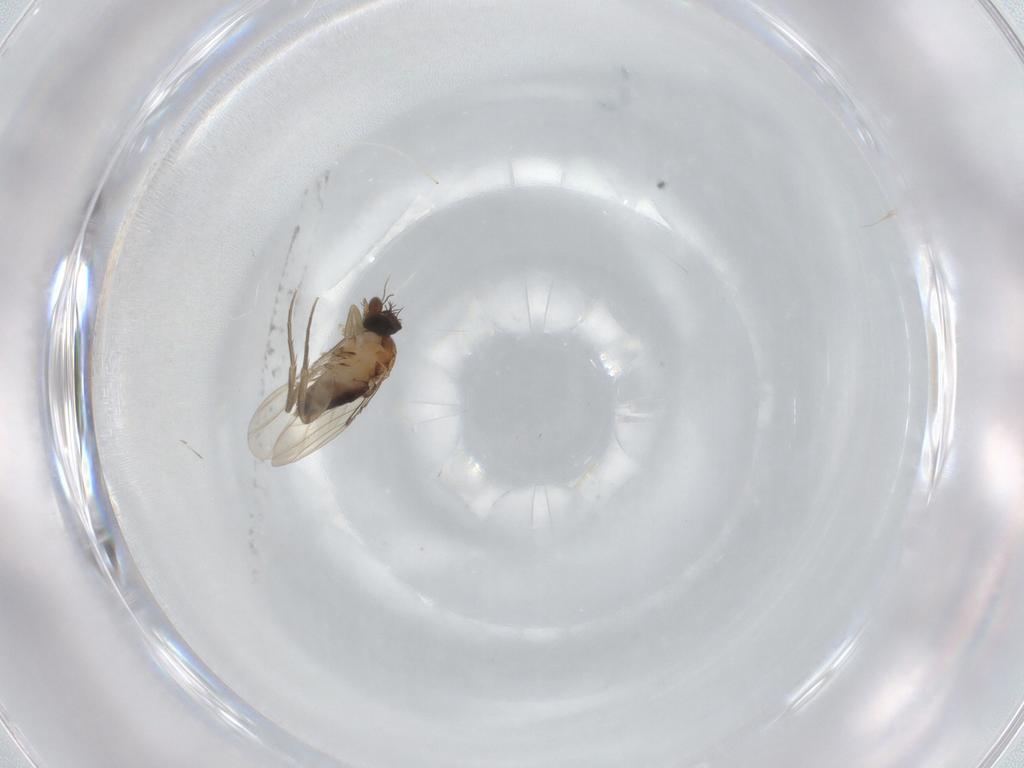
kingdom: Animalia
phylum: Arthropoda
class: Insecta
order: Diptera
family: Phoridae
